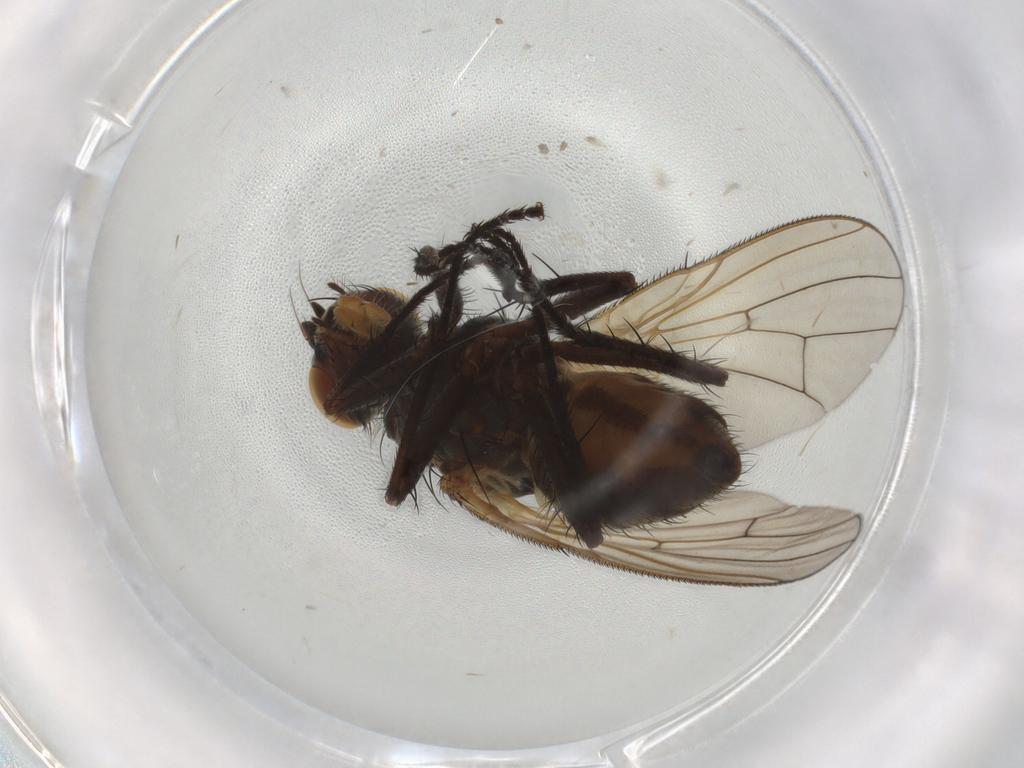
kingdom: Animalia
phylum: Arthropoda
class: Insecta
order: Diptera
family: Anthomyiidae
